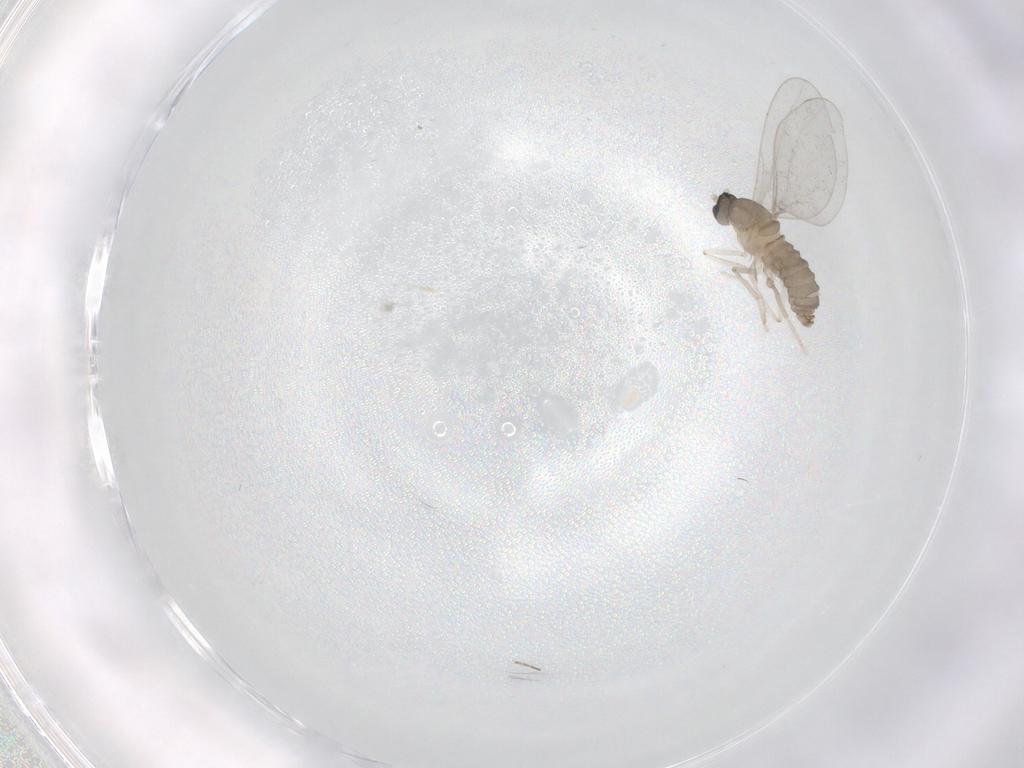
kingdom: Animalia
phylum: Arthropoda
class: Insecta
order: Diptera
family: Cecidomyiidae
